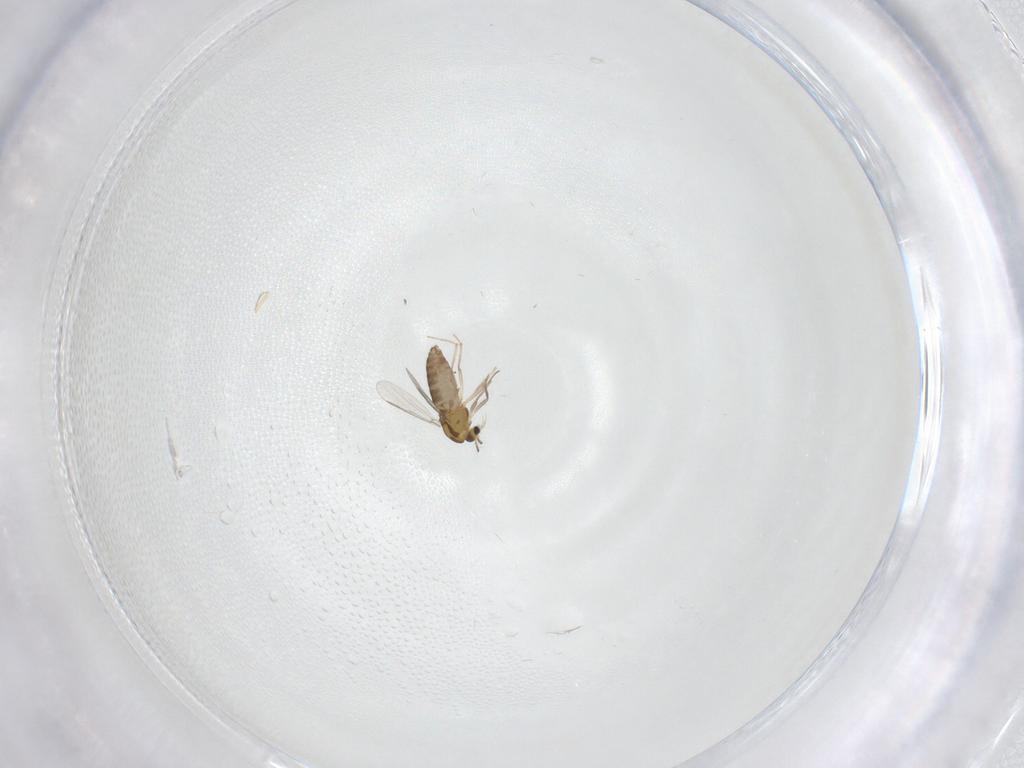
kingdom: Animalia
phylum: Arthropoda
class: Insecta
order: Diptera
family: Chironomidae
